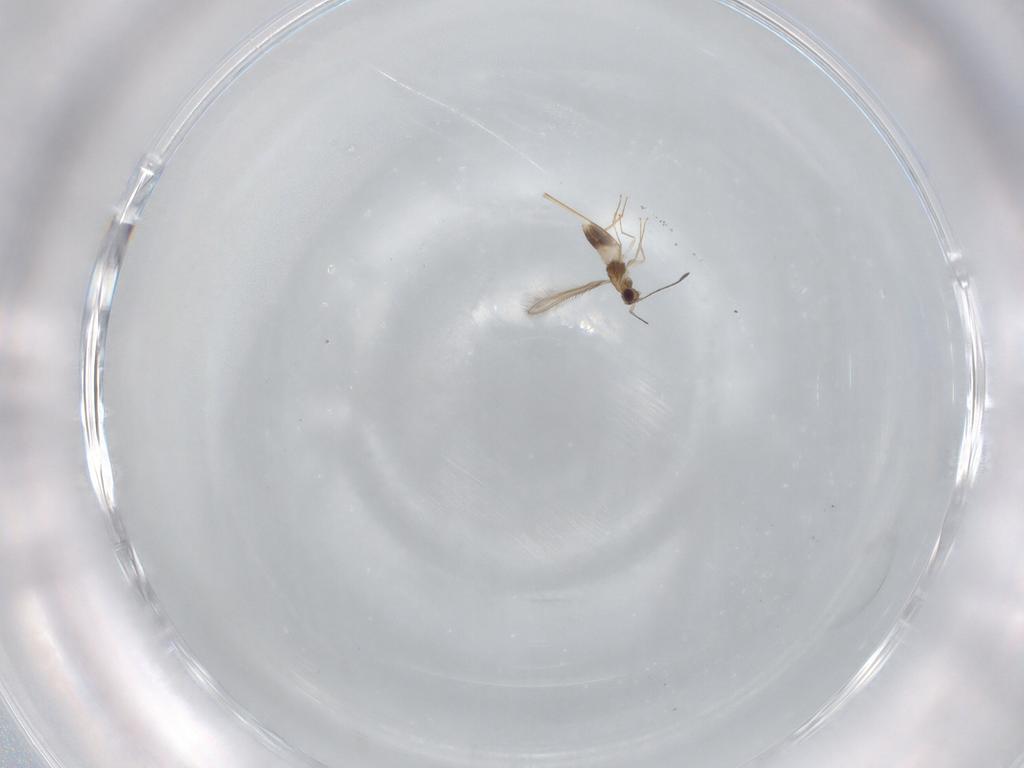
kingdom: Animalia
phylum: Arthropoda
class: Insecta
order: Hymenoptera
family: Mymaridae
